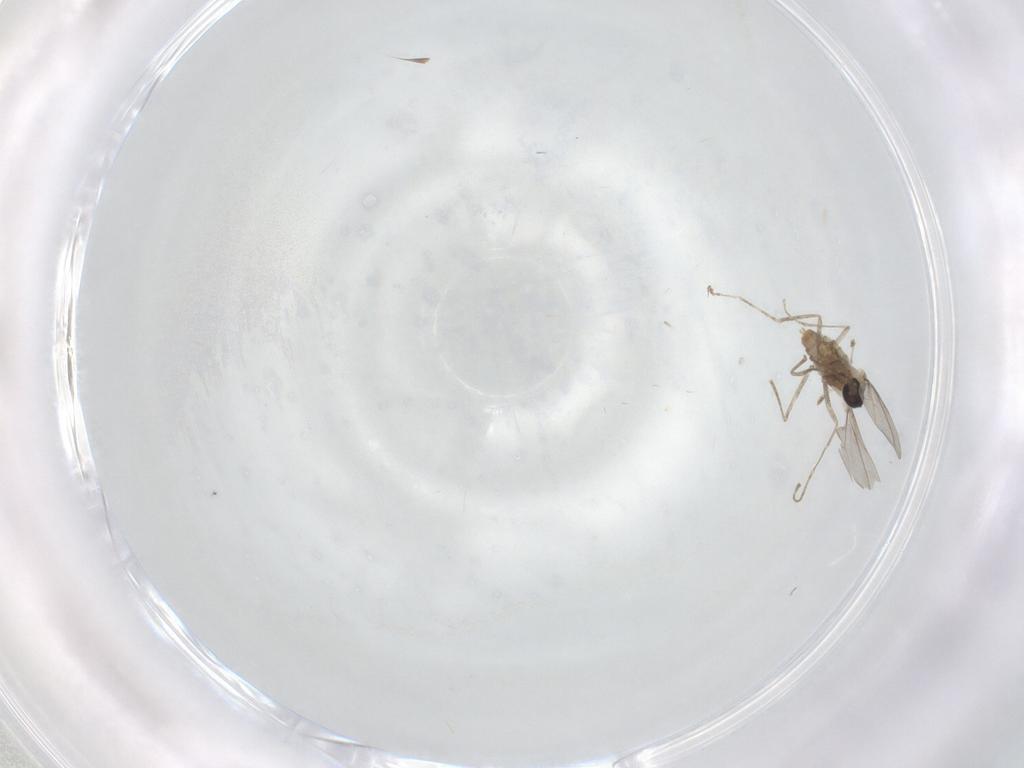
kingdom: Animalia
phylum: Arthropoda
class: Insecta
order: Diptera
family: Cecidomyiidae
